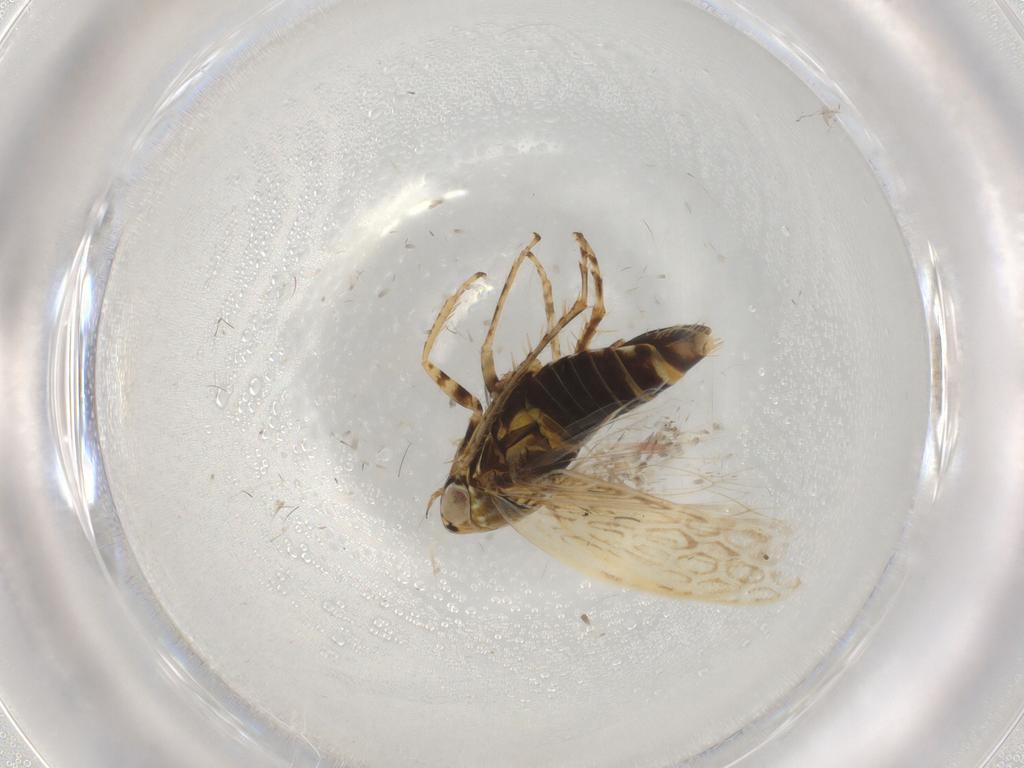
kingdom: Animalia
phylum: Arthropoda
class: Insecta
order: Hemiptera
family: Cicadellidae
